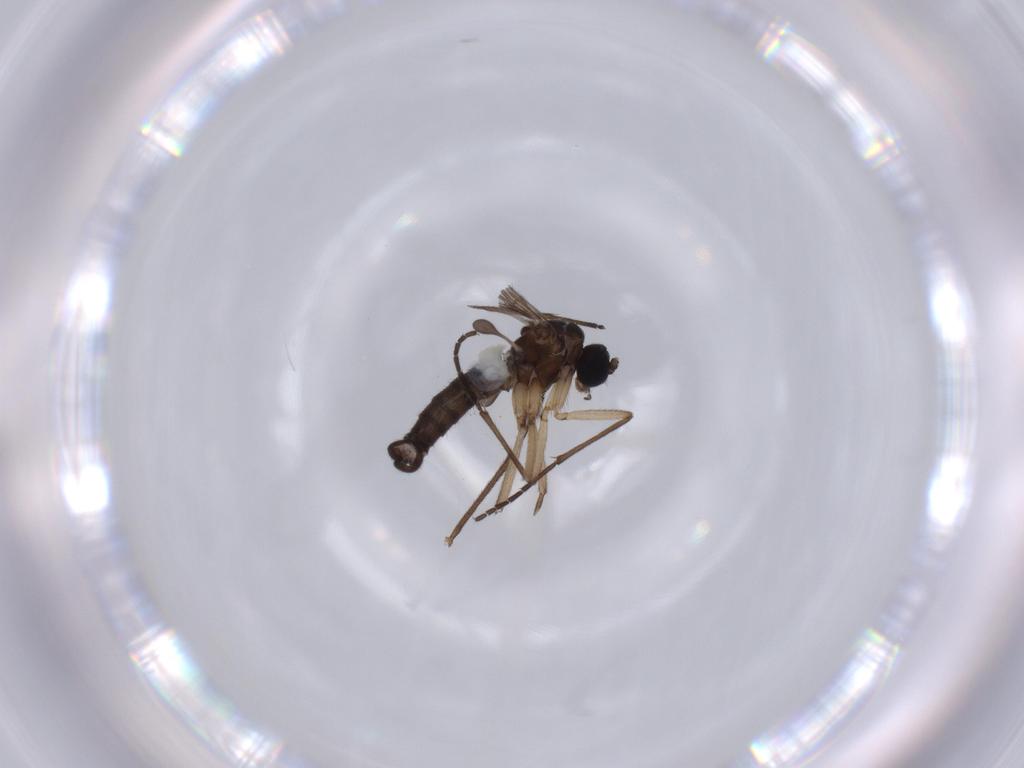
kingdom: Animalia
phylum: Arthropoda
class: Insecta
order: Diptera
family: Sciaridae
